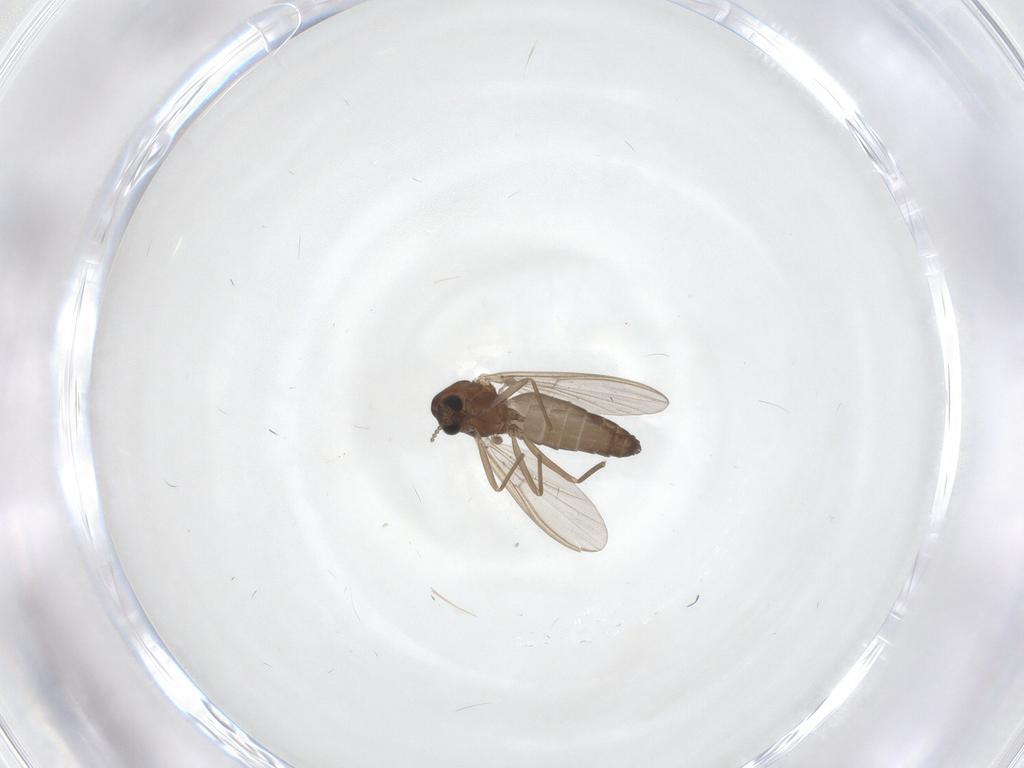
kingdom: Animalia
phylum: Arthropoda
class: Insecta
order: Diptera
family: Chironomidae
